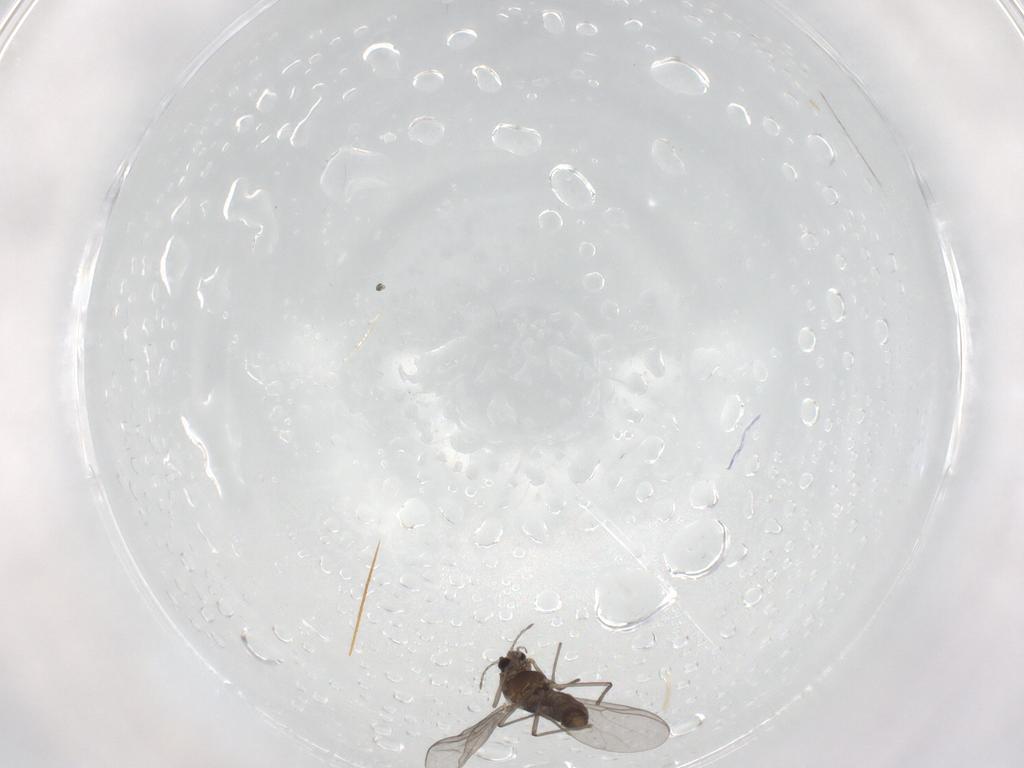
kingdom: Animalia
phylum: Arthropoda
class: Insecta
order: Diptera
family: Chironomidae
